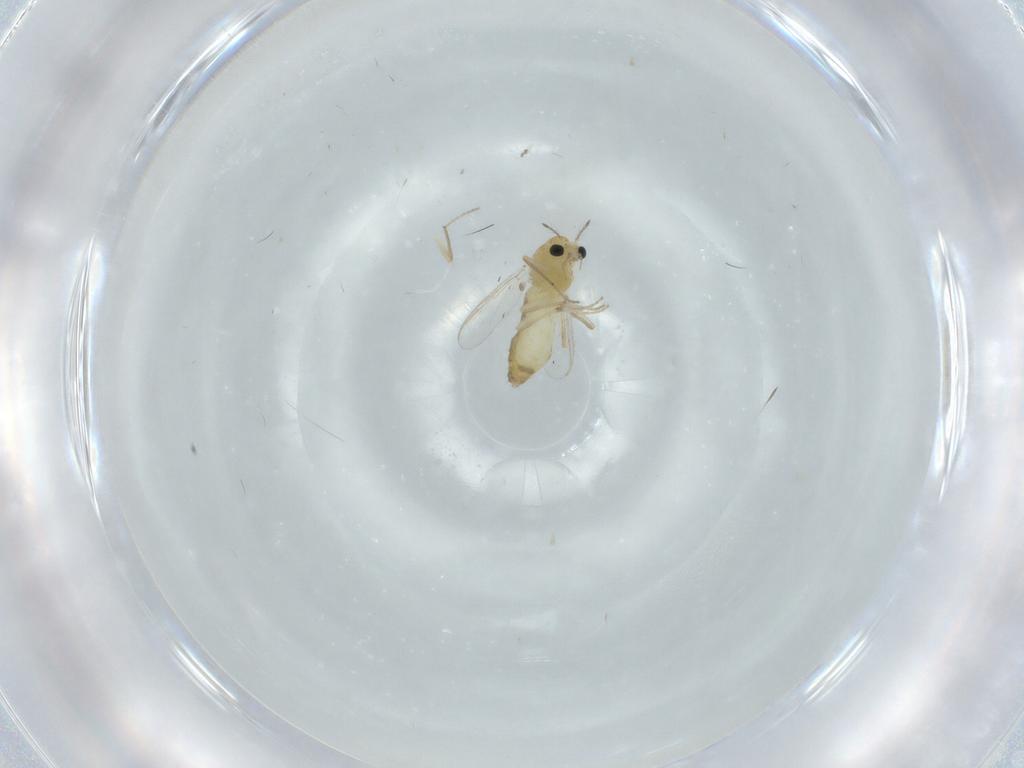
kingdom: Animalia
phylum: Arthropoda
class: Insecta
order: Diptera
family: Chironomidae
